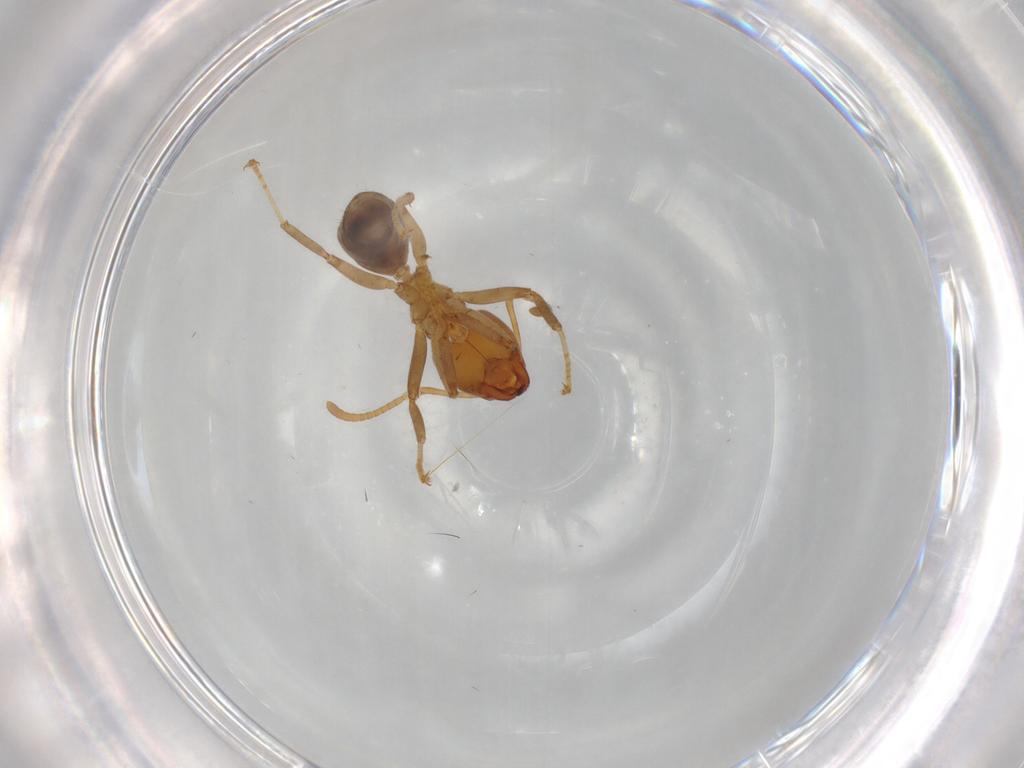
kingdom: Animalia
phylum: Arthropoda
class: Insecta
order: Hymenoptera
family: Formicidae
